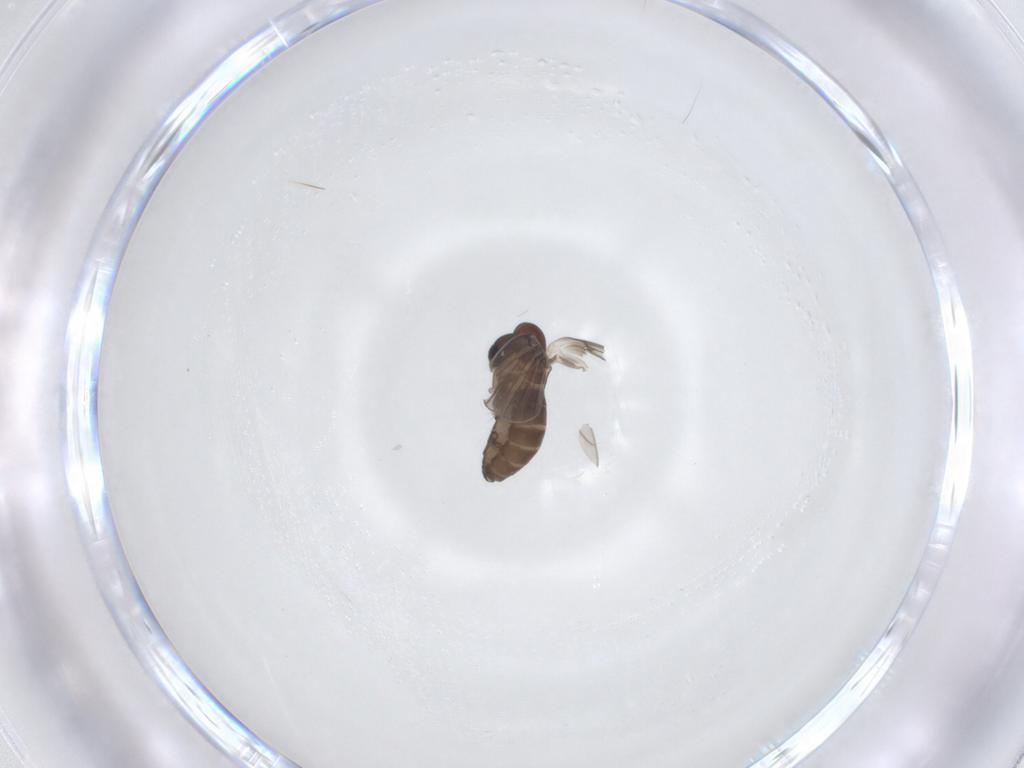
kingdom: Animalia
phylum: Arthropoda
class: Insecta
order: Diptera
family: Psychodidae
